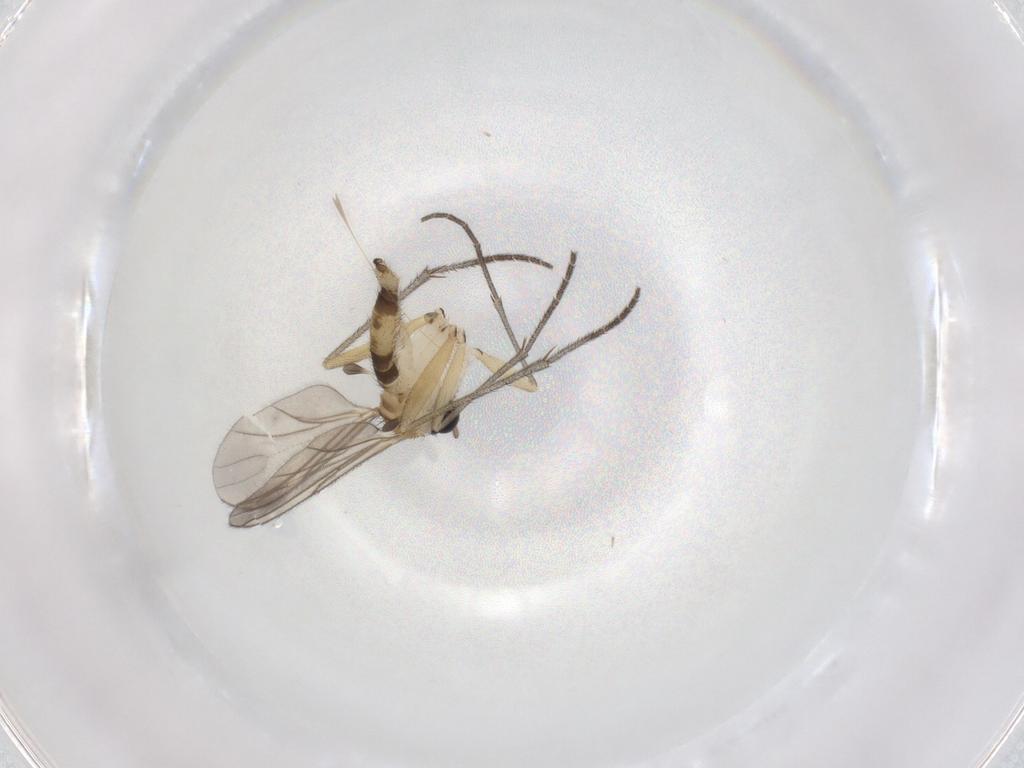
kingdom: Animalia
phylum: Arthropoda
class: Insecta
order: Diptera
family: Sciaridae
